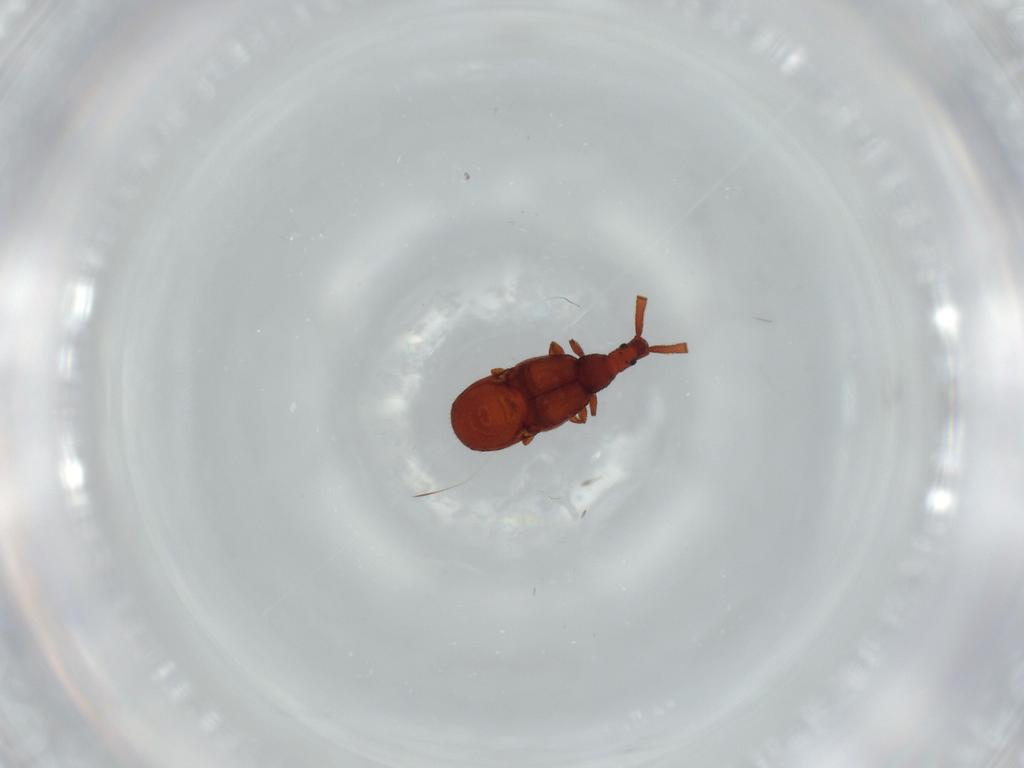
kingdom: Animalia
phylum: Arthropoda
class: Insecta
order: Coleoptera
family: Staphylinidae
